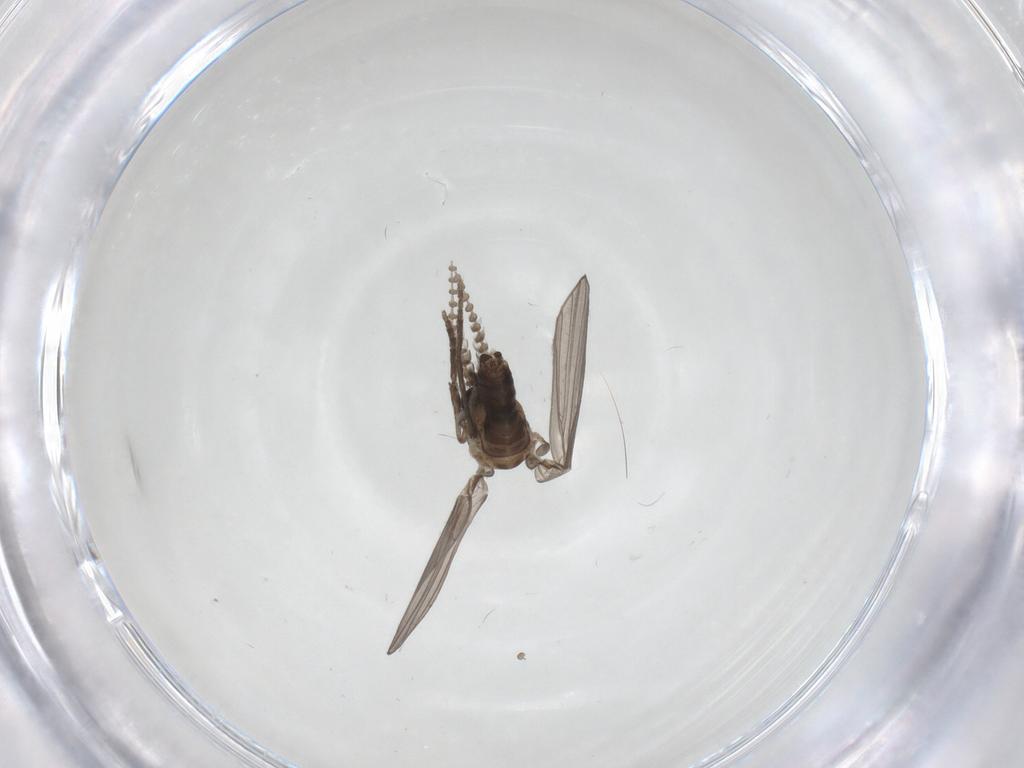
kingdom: Animalia
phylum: Arthropoda
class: Insecta
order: Diptera
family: Psychodidae
